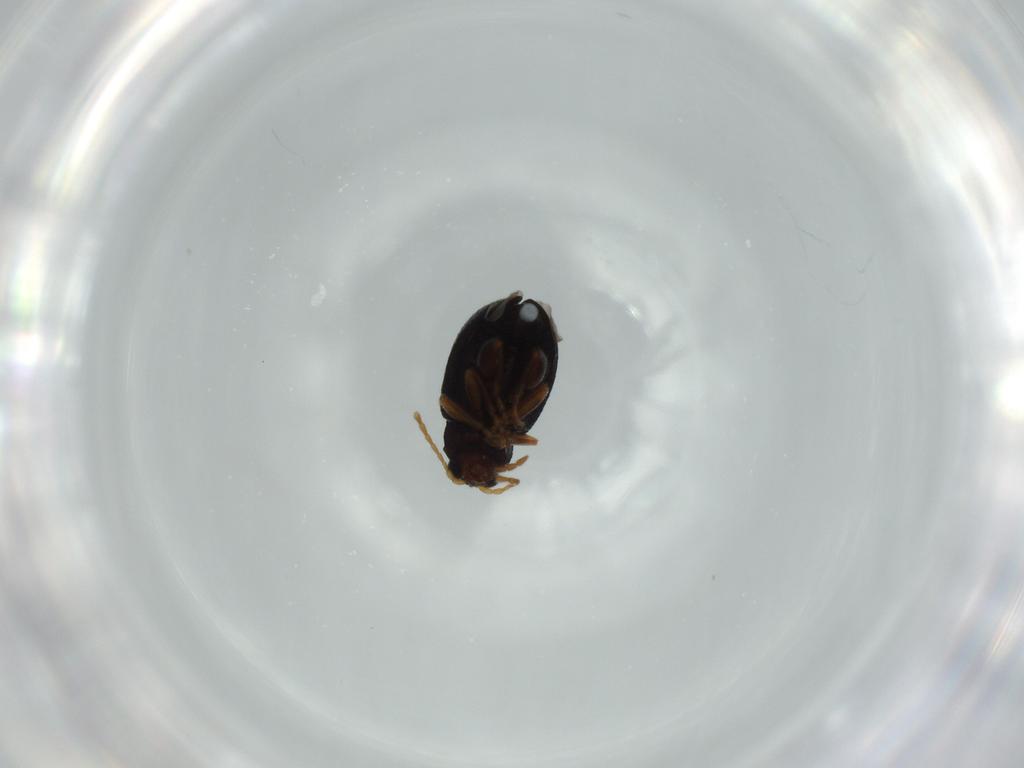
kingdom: Animalia
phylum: Arthropoda
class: Insecta
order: Coleoptera
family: Chrysomelidae
